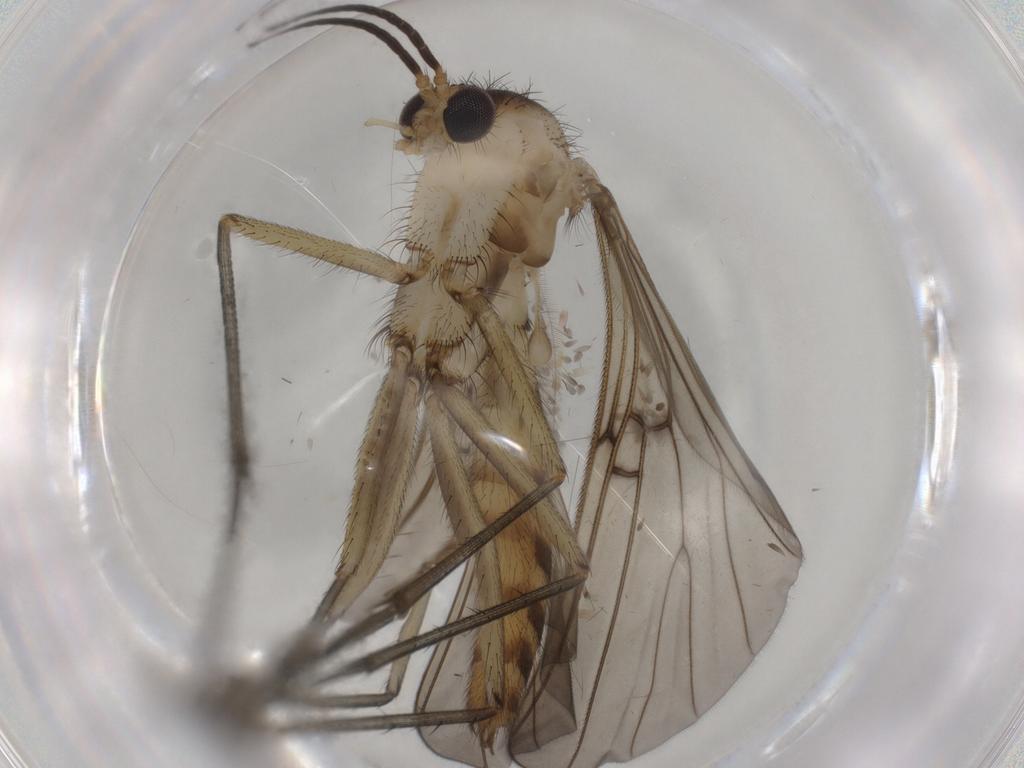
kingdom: Animalia
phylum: Arthropoda
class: Insecta
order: Diptera
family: Mycetophilidae
